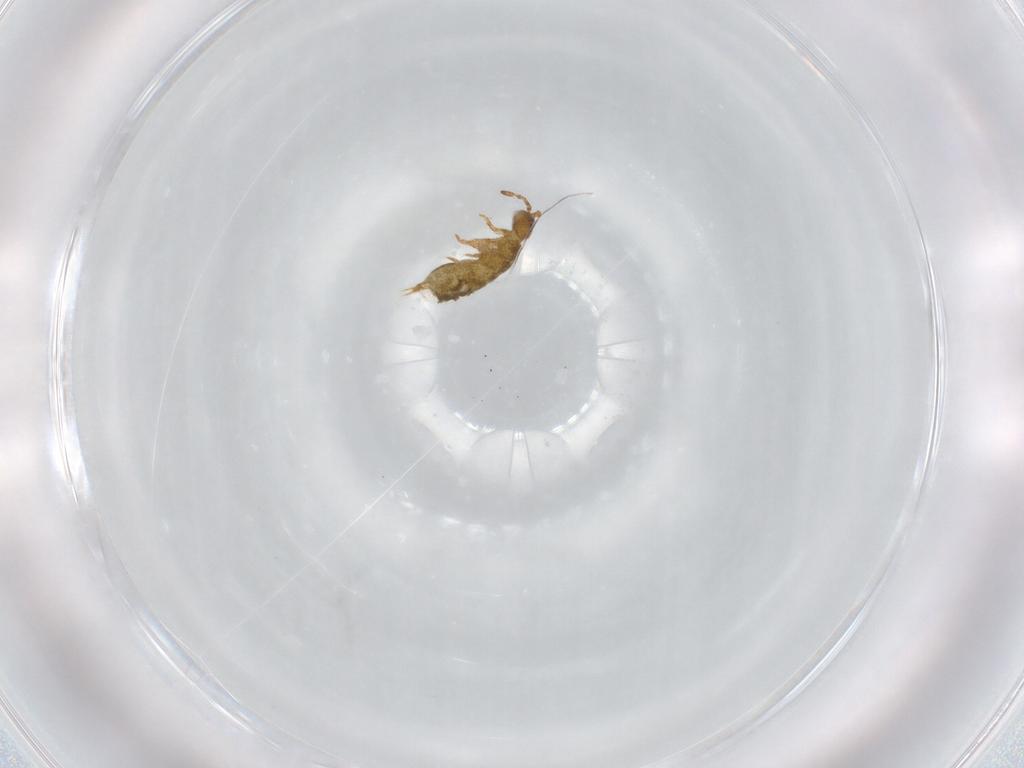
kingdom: Animalia
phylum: Arthropoda
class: Collembola
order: Entomobryomorpha
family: Isotomidae
